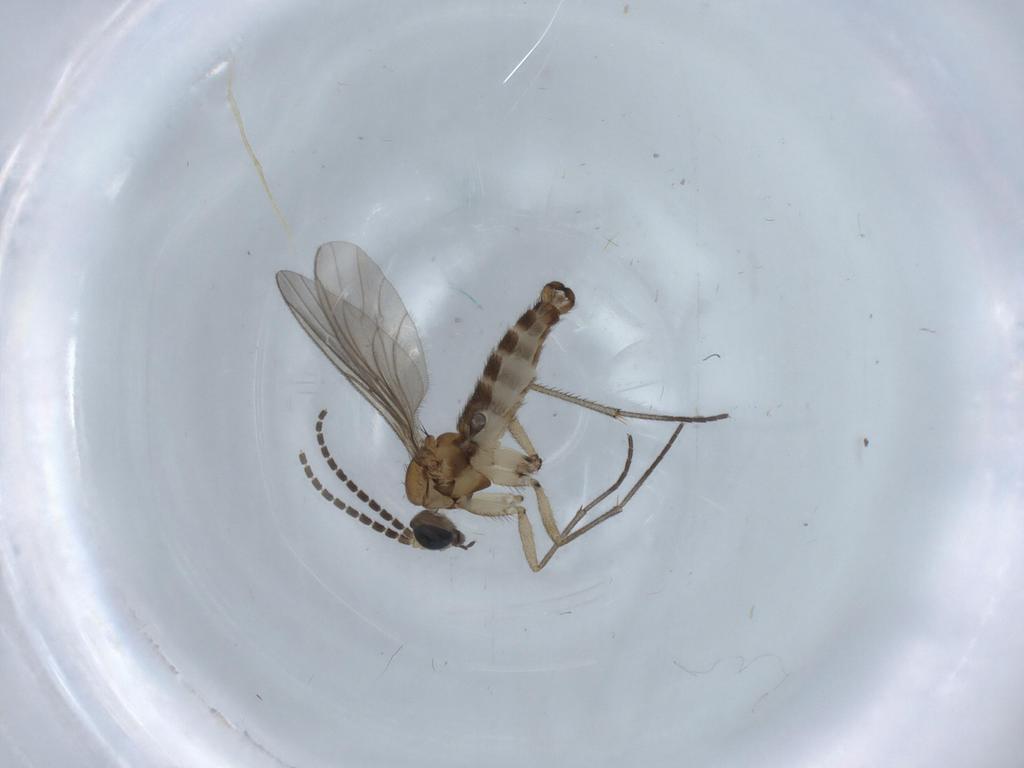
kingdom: Animalia
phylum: Arthropoda
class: Insecta
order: Diptera
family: Sciaridae
